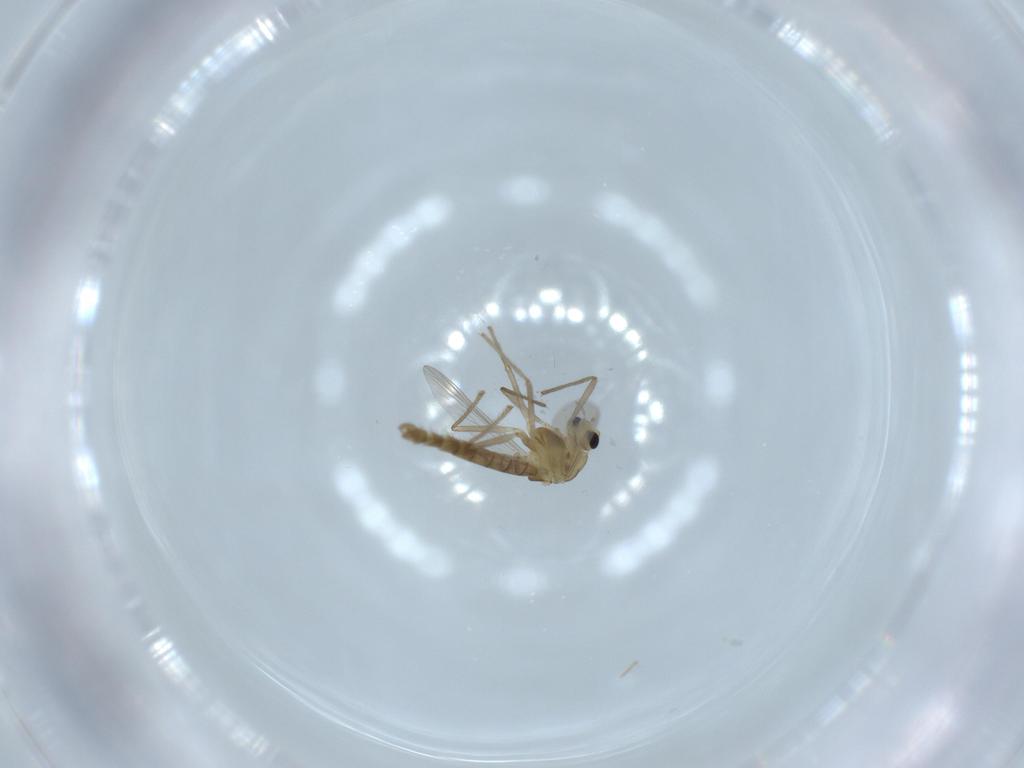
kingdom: Animalia
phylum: Arthropoda
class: Insecta
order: Diptera
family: Chironomidae
